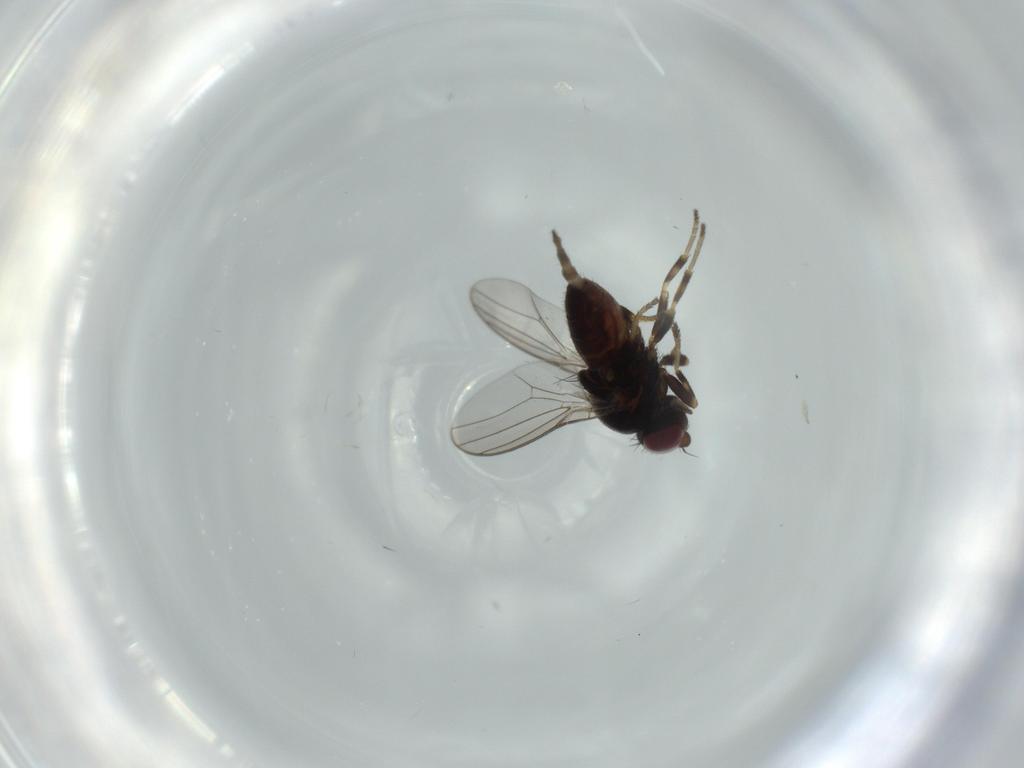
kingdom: Animalia
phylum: Arthropoda
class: Insecta
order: Diptera
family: Chloropidae
